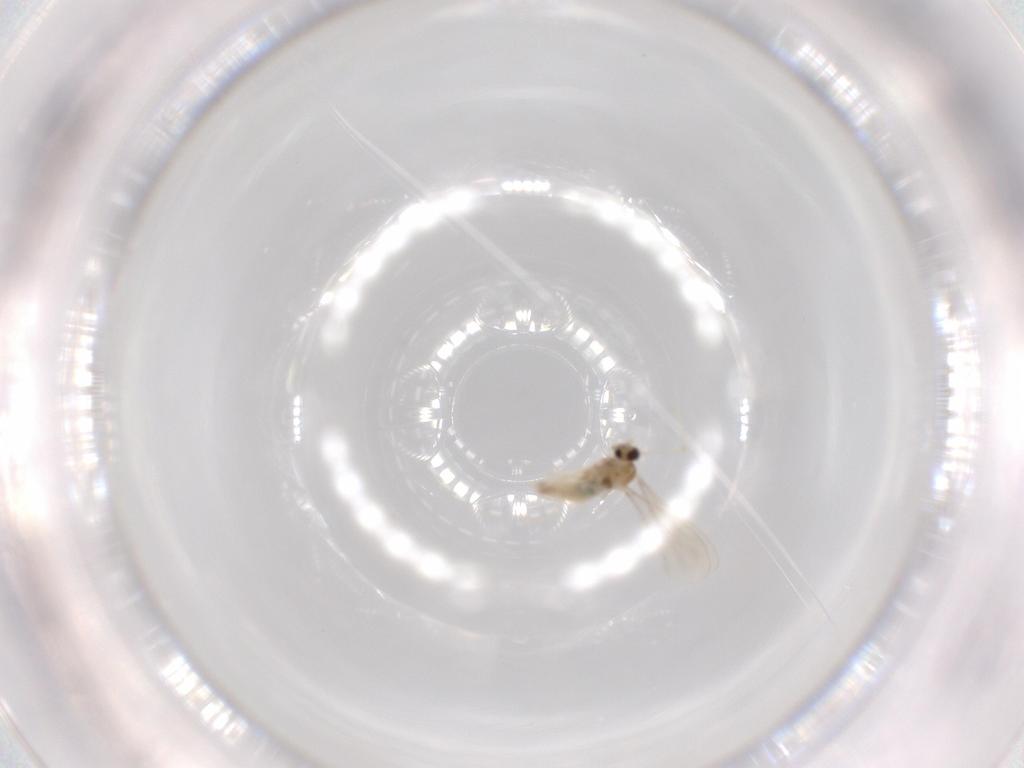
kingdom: Animalia
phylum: Arthropoda
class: Insecta
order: Diptera
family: Cecidomyiidae
